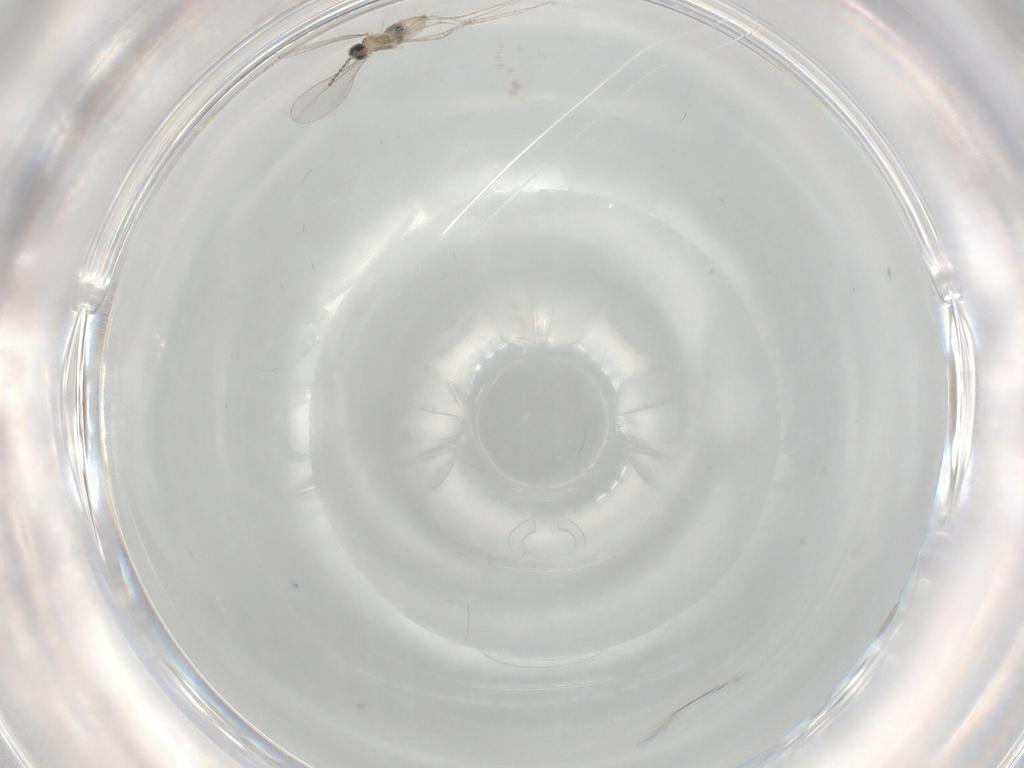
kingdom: Animalia
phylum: Arthropoda
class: Insecta
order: Diptera
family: Cecidomyiidae
